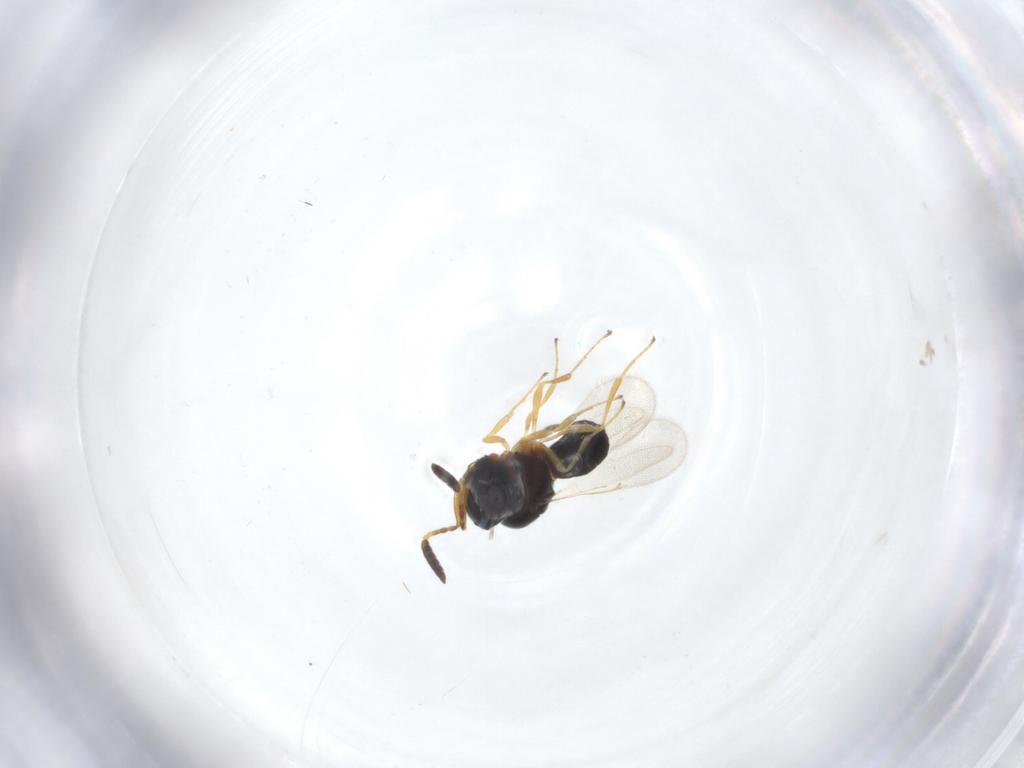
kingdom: Animalia
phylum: Arthropoda
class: Insecta
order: Hymenoptera
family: Scelionidae
